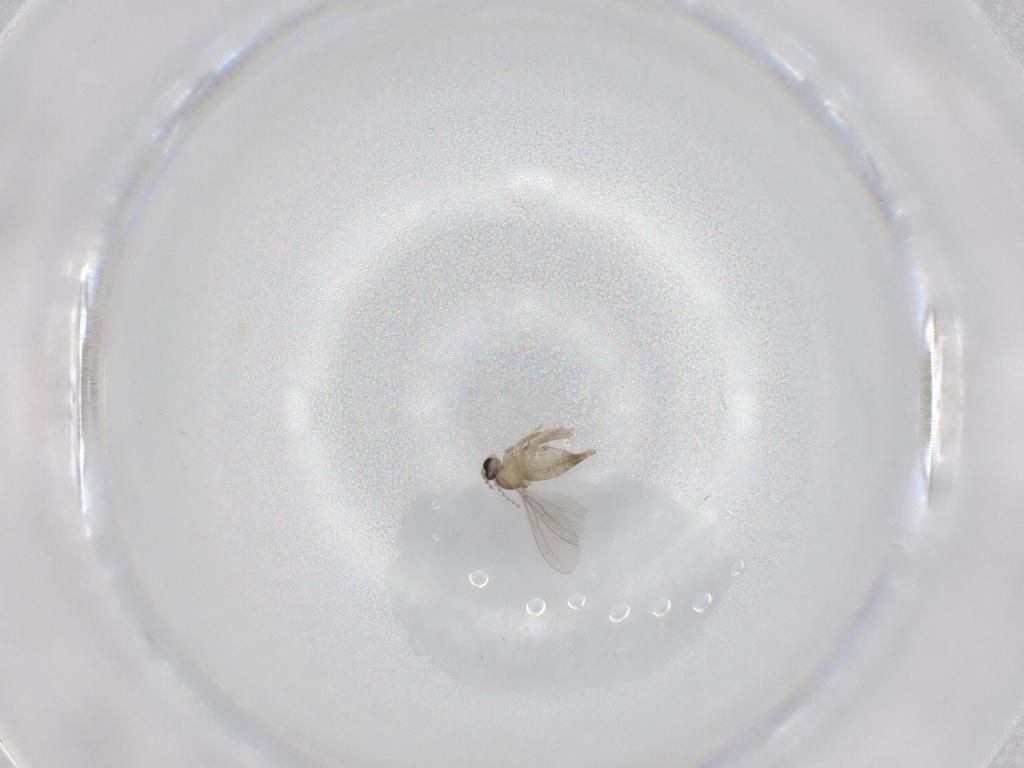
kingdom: Animalia
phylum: Arthropoda
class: Insecta
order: Diptera
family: Cecidomyiidae
